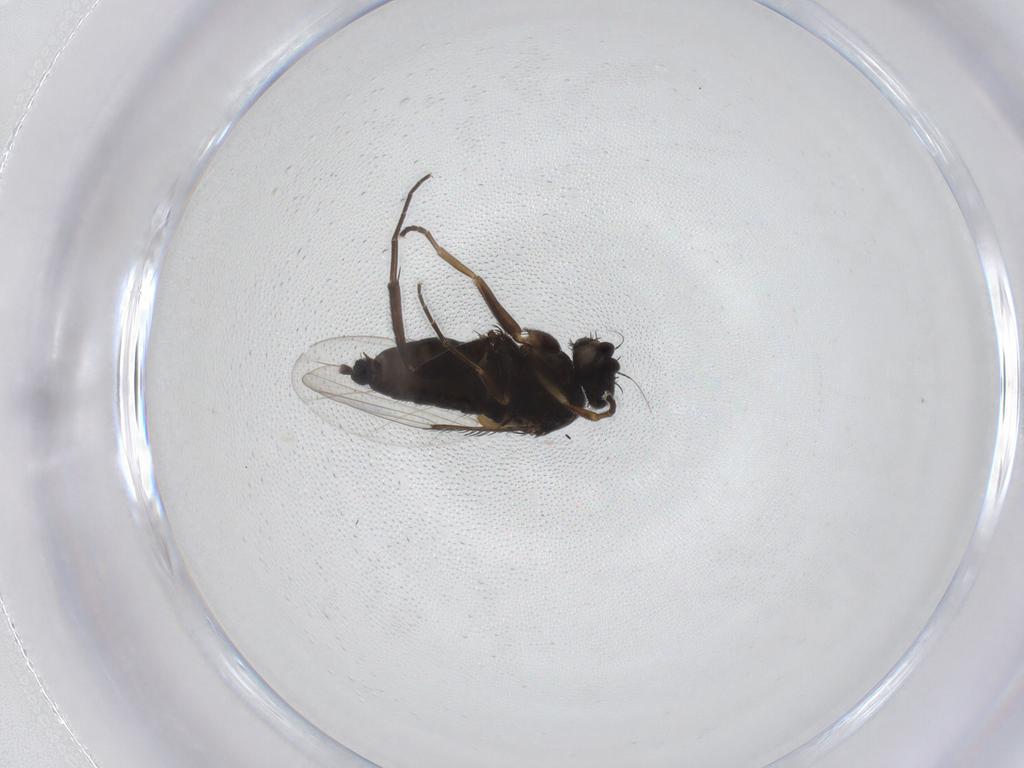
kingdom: Animalia
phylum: Arthropoda
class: Insecta
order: Diptera
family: Phoridae
